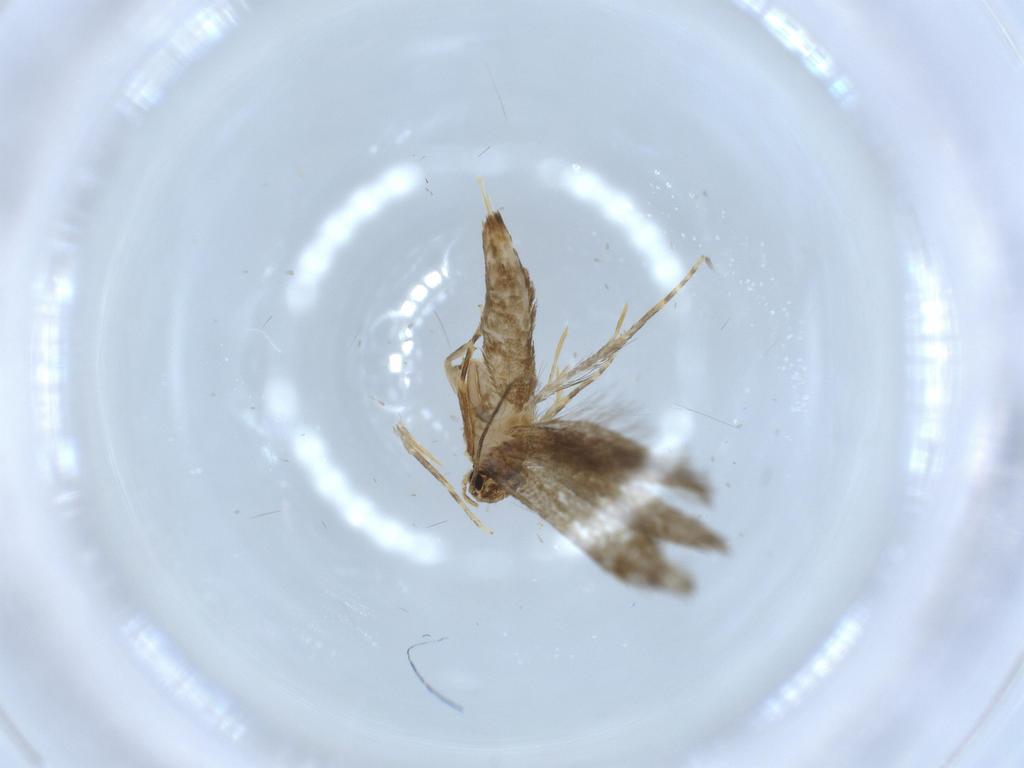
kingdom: Animalia
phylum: Arthropoda
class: Insecta
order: Lepidoptera
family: Tineidae
